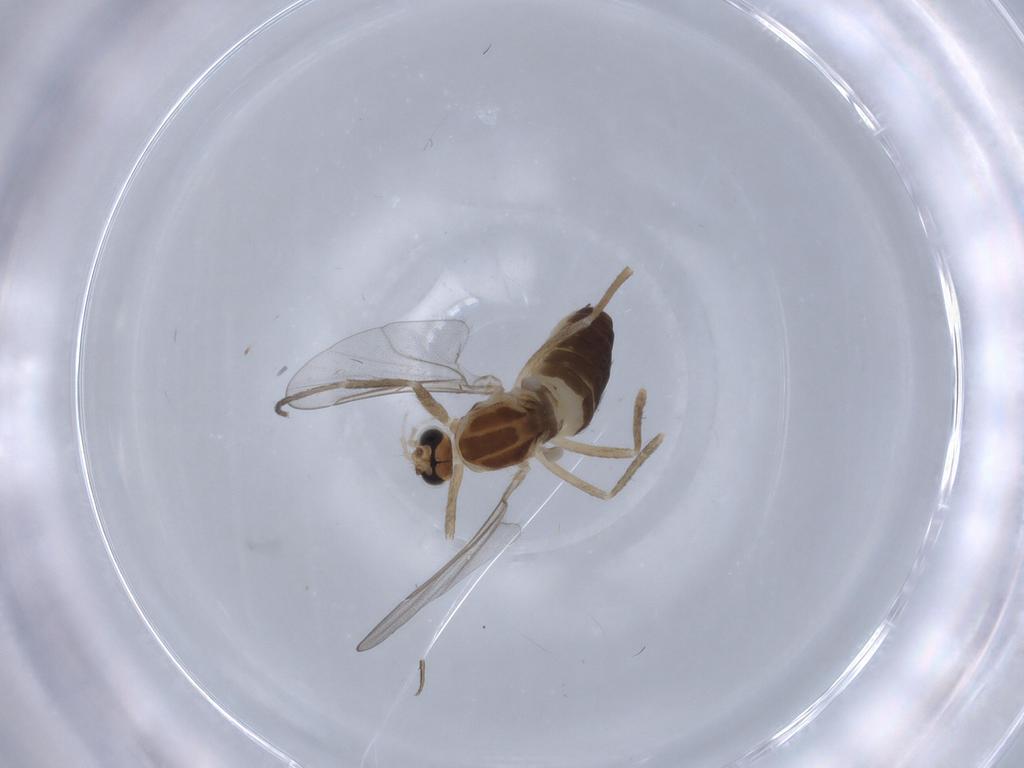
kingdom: Animalia
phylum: Arthropoda
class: Insecta
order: Diptera
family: Cecidomyiidae
